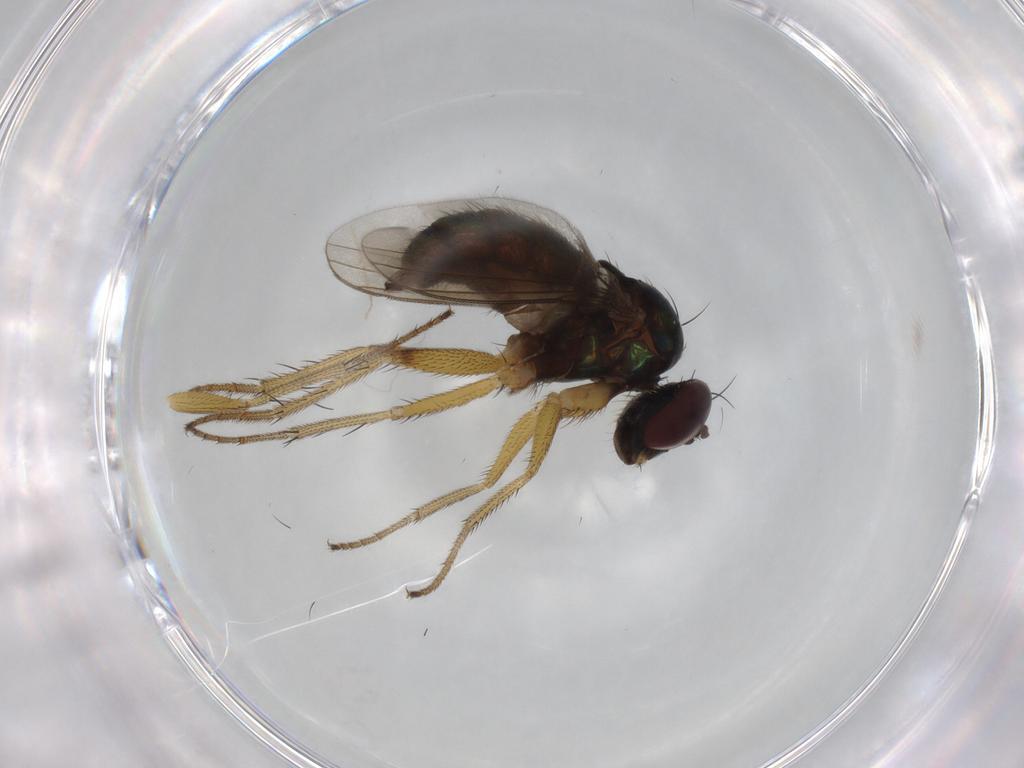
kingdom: Animalia
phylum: Arthropoda
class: Insecta
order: Diptera
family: Dolichopodidae
